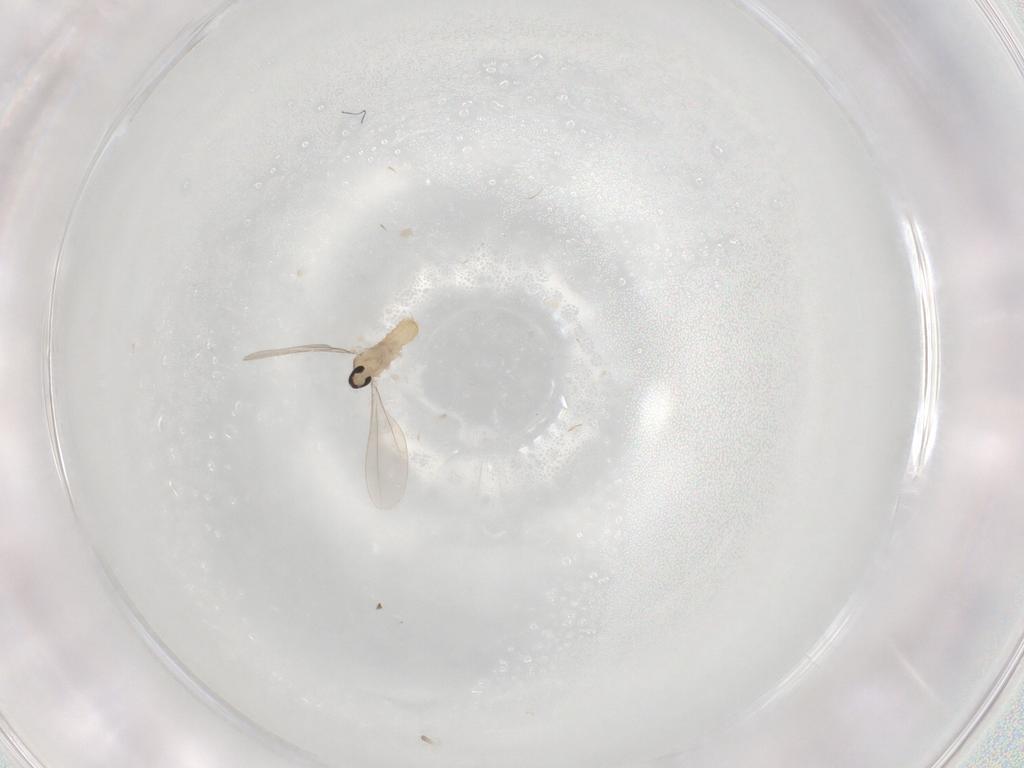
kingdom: Animalia
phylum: Arthropoda
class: Insecta
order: Diptera
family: Cecidomyiidae
